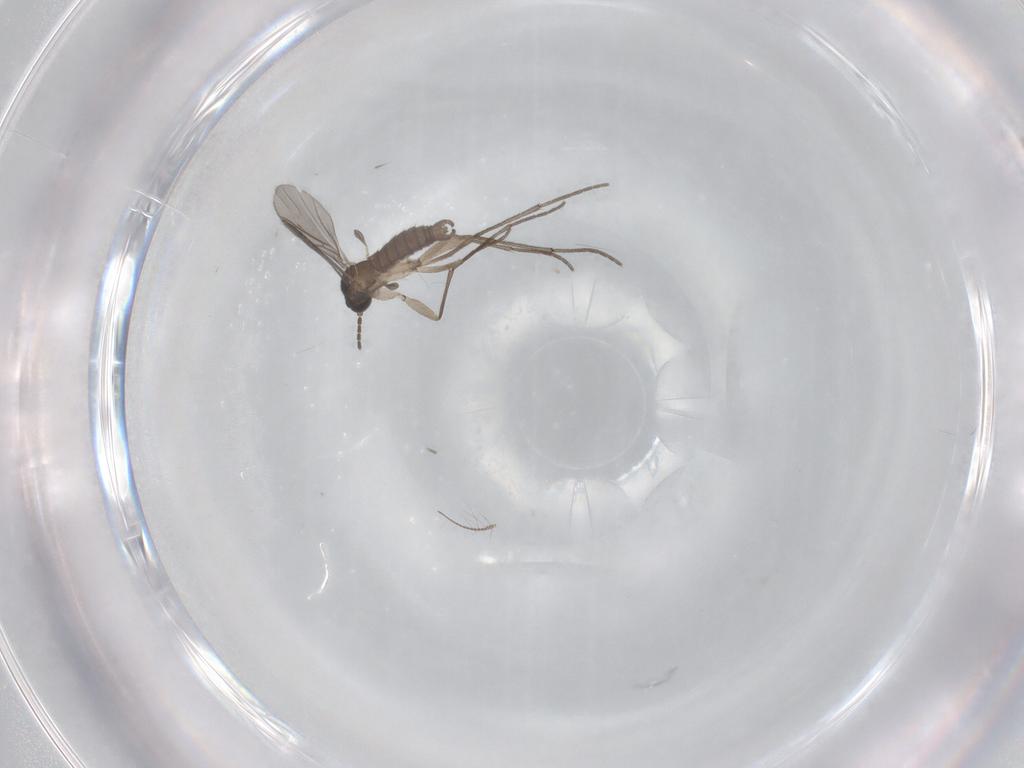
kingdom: Animalia
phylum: Arthropoda
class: Insecta
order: Diptera
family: Sciaridae
